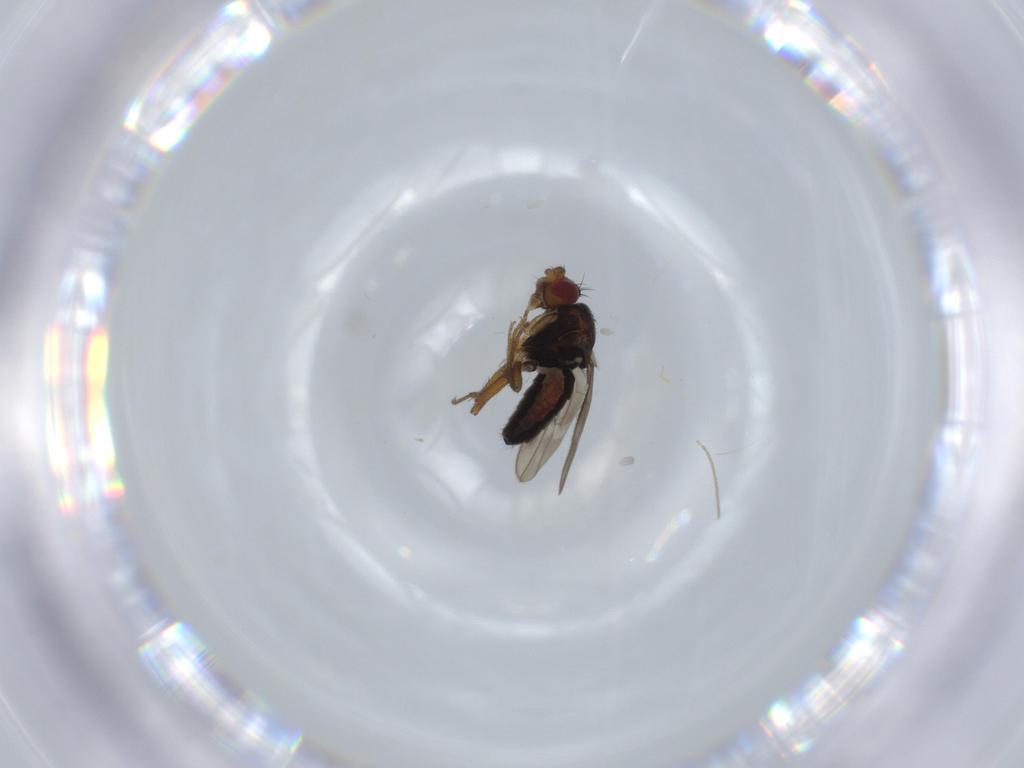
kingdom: Animalia
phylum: Arthropoda
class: Insecta
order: Diptera
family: Sphaeroceridae
